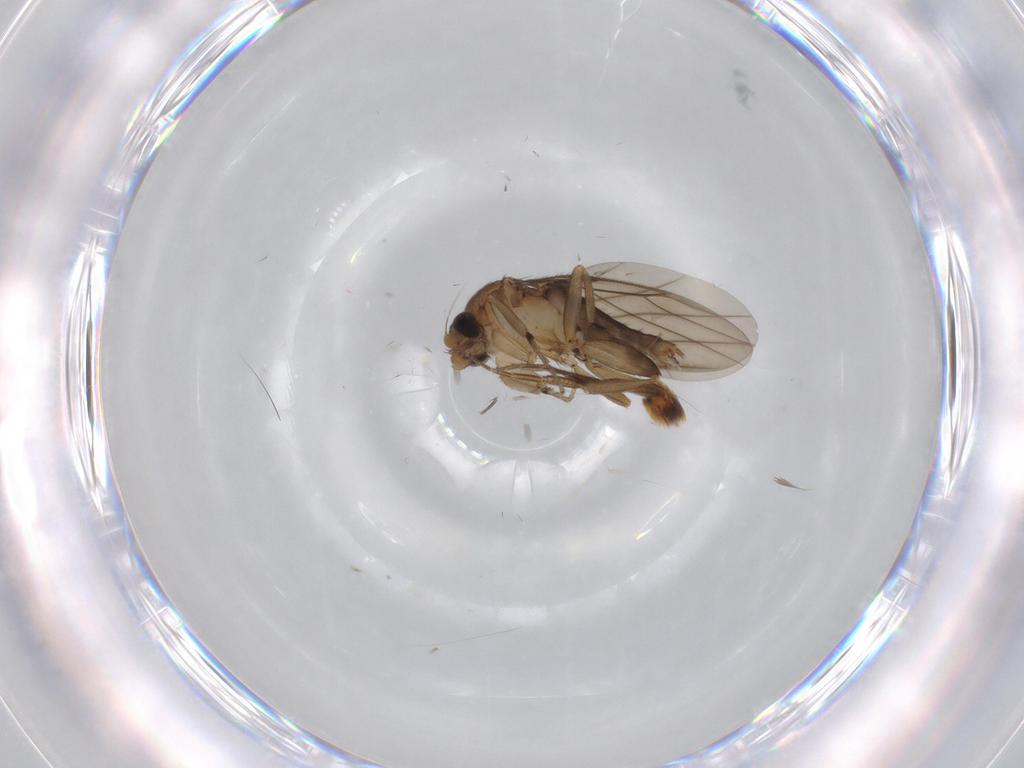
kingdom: Animalia
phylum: Arthropoda
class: Insecta
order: Diptera
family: Phoridae
